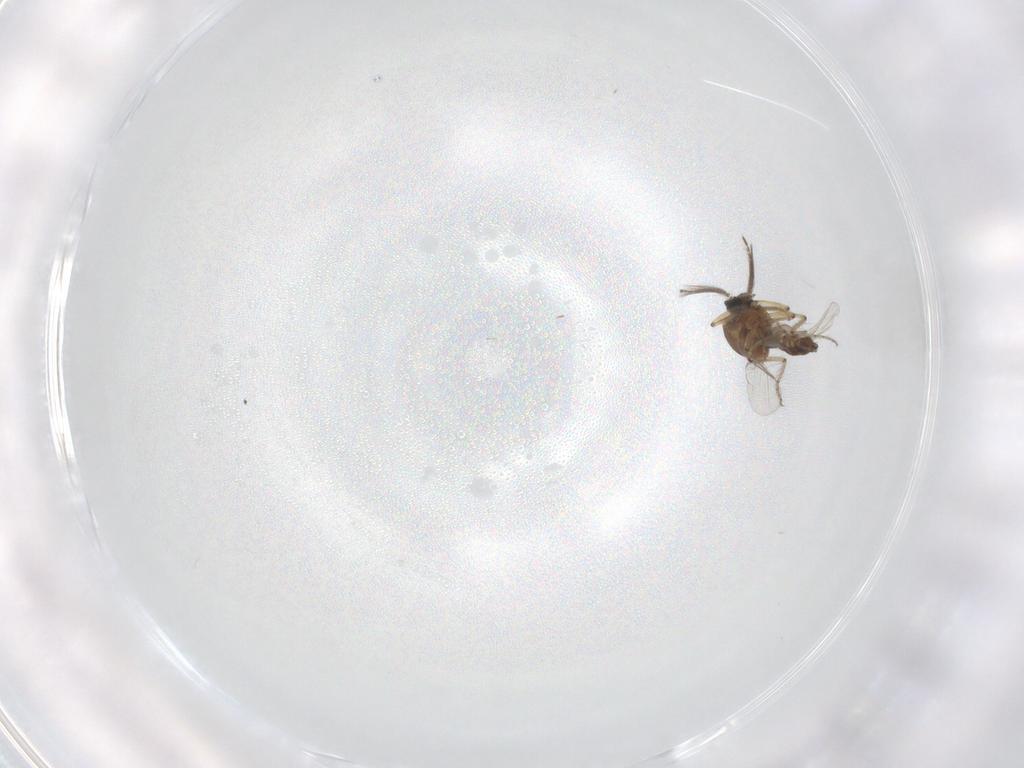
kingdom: Animalia
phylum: Arthropoda
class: Insecta
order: Diptera
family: Ceratopogonidae
